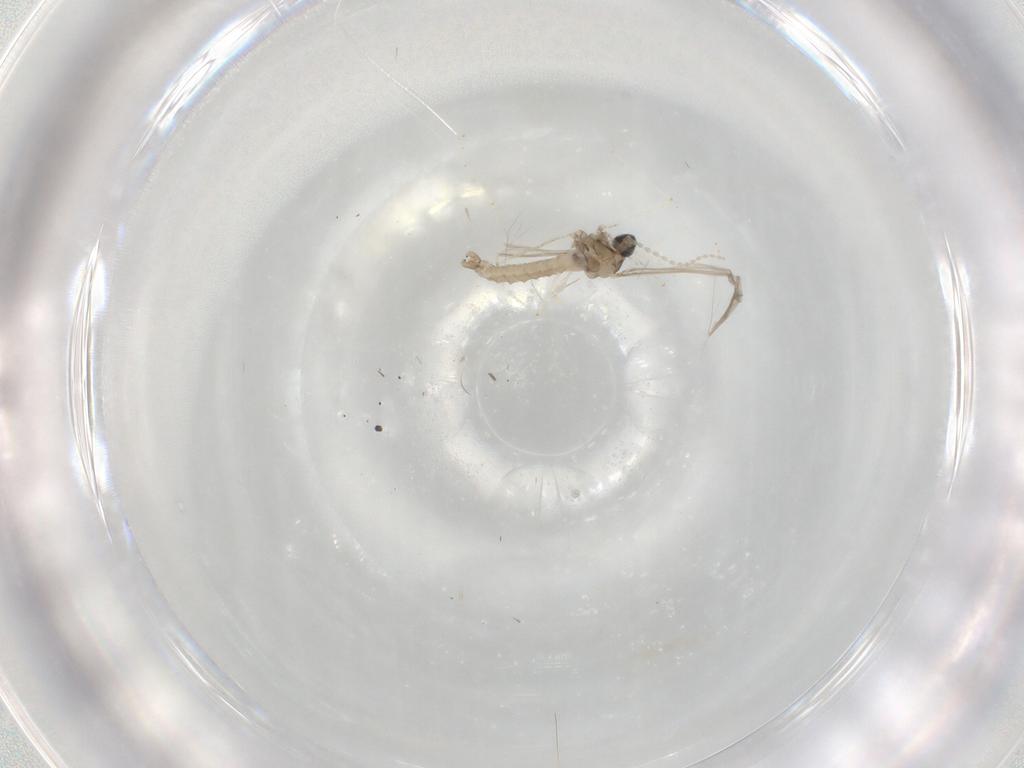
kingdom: Animalia
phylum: Arthropoda
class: Insecta
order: Diptera
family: Cecidomyiidae
